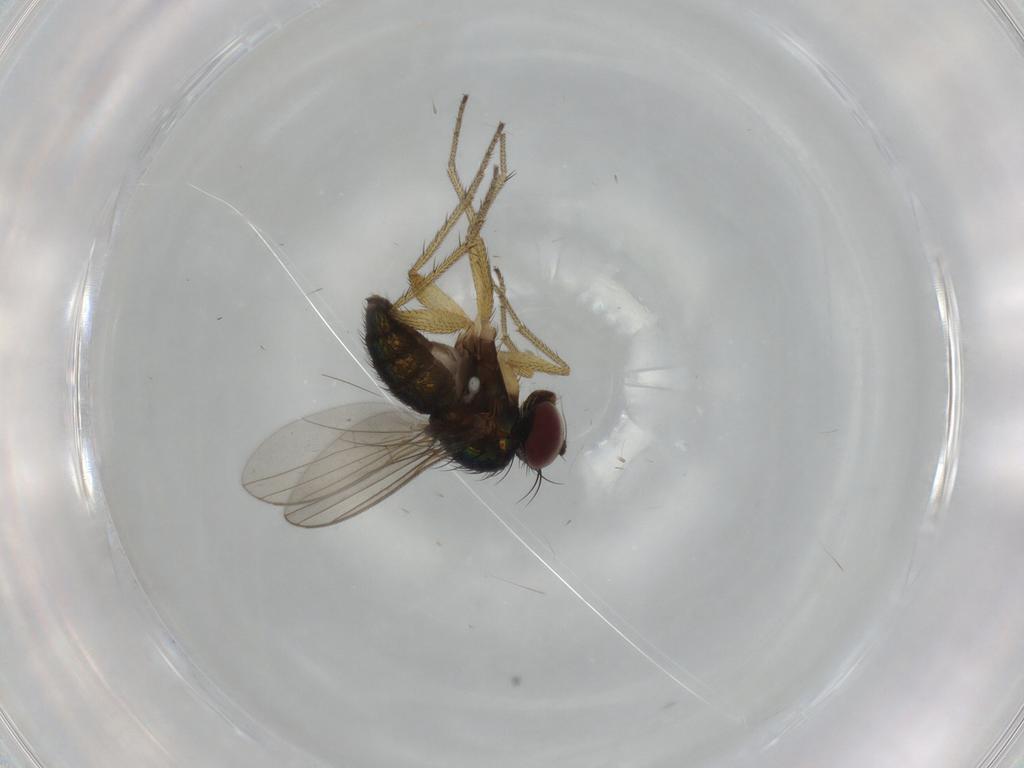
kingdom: Animalia
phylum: Arthropoda
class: Insecta
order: Diptera
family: Dolichopodidae
